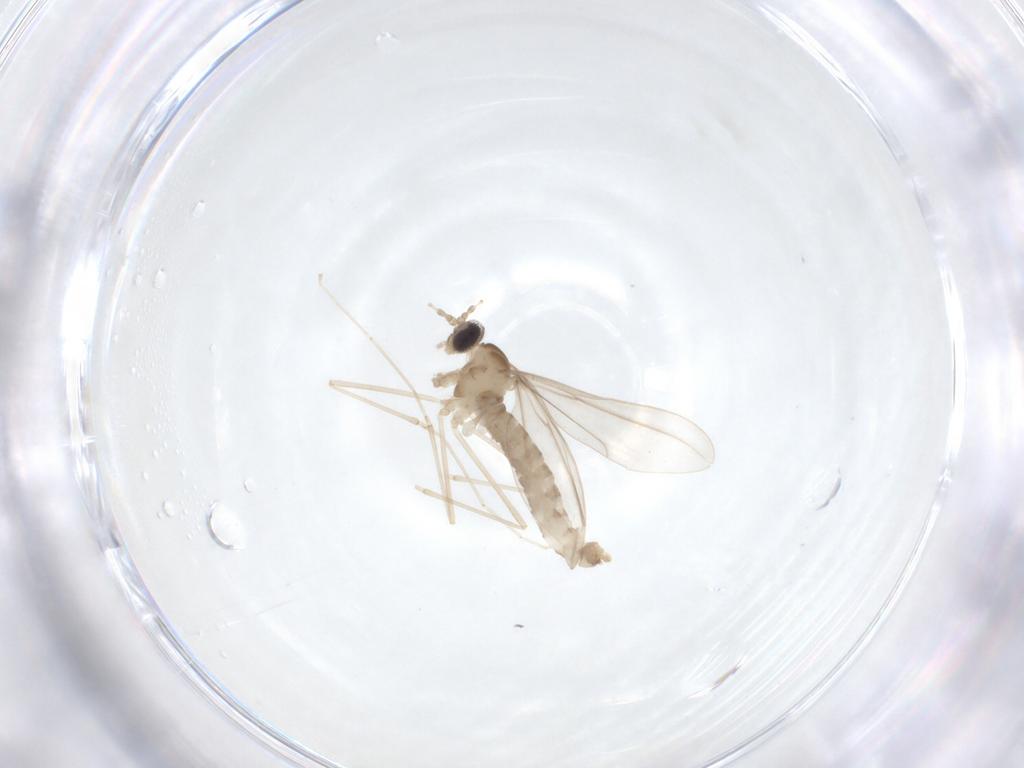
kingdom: Animalia
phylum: Arthropoda
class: Insecta
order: Diptera
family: Cecidomyiidae
